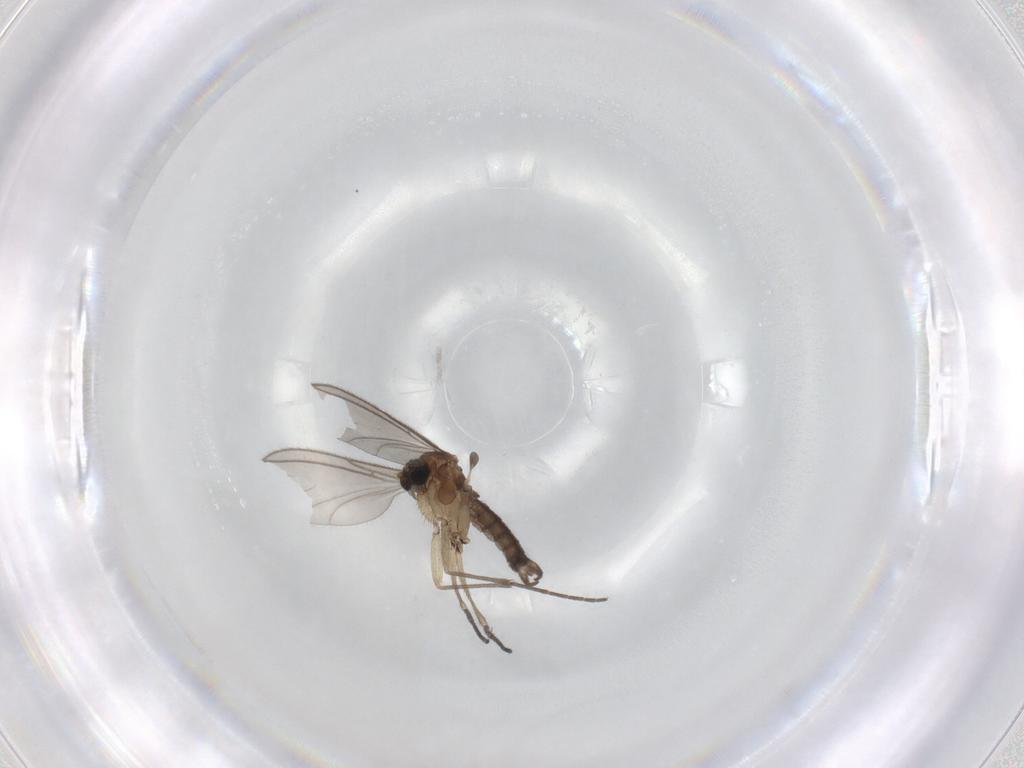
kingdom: Animalia
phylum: Arthropoda
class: Insecta
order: Diptera
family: Sciaridae
